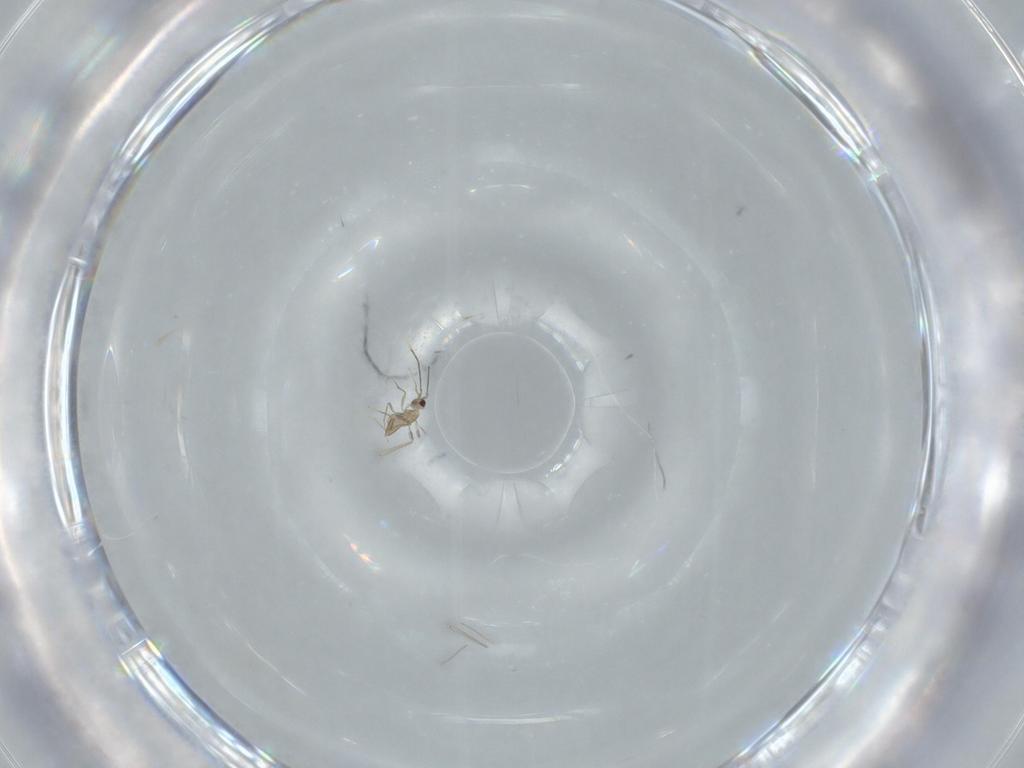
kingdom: Animalia
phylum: Arthropoda
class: Insecta
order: Hymenoptera
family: Mymaridae
